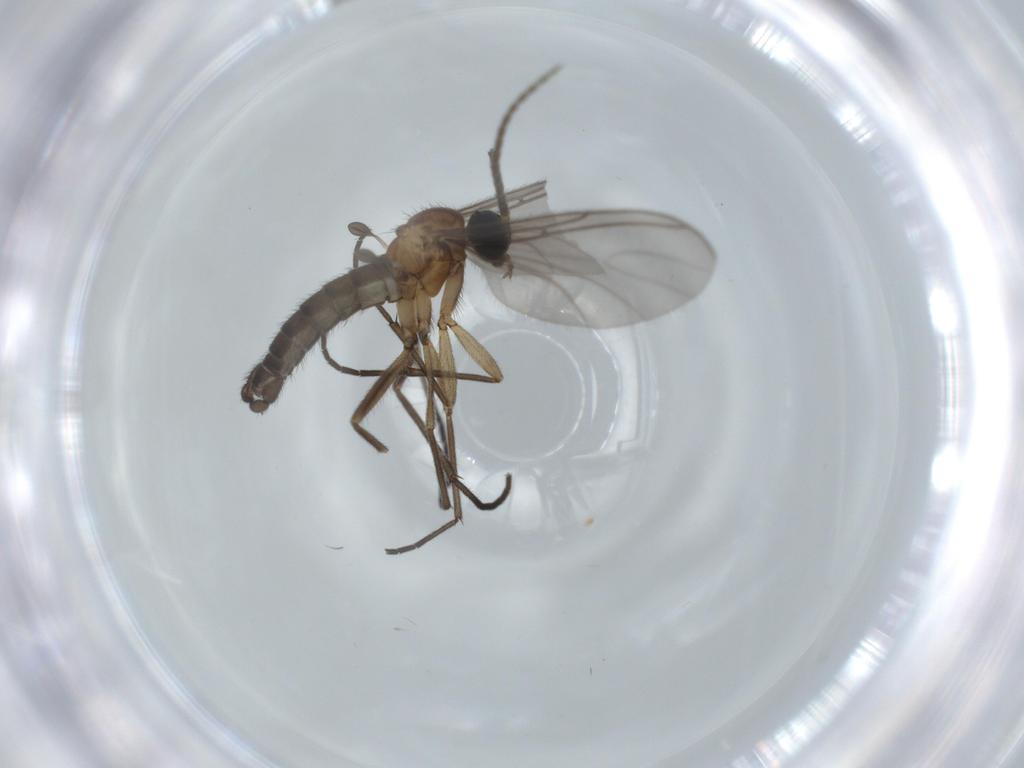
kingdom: Animalia
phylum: Arthropoda
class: Insecta
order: Diptera
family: Sciaridae
